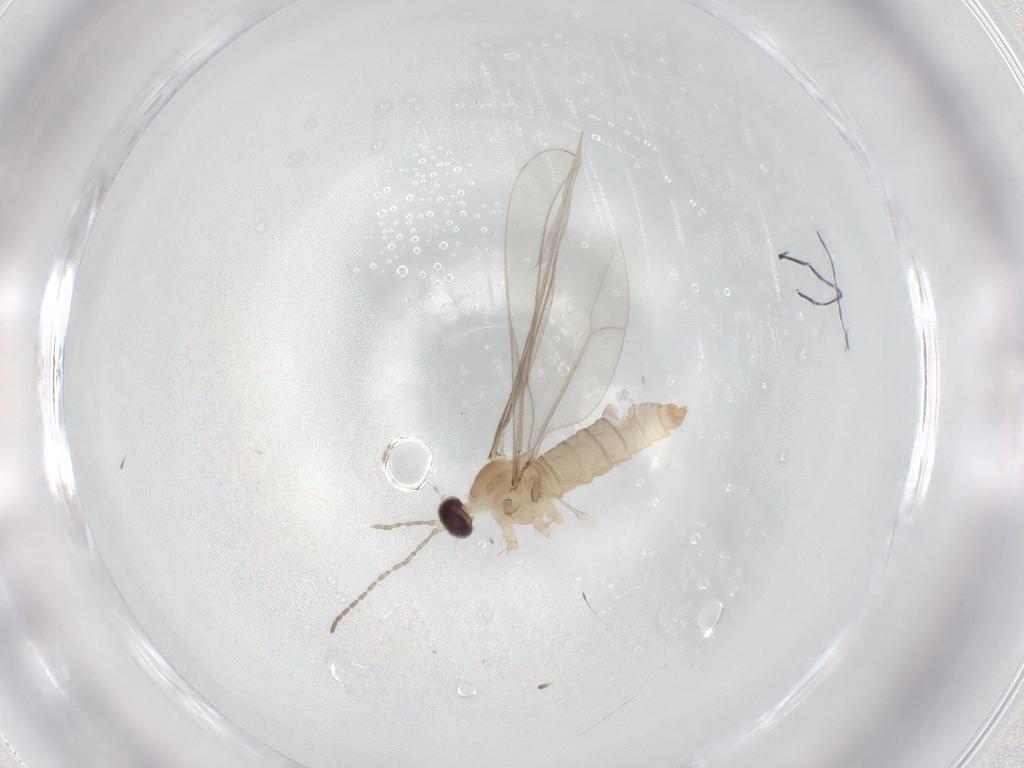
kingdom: Animalia
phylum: Arthropoda
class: Insecta
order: Diptera
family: Cecidomyiidae
